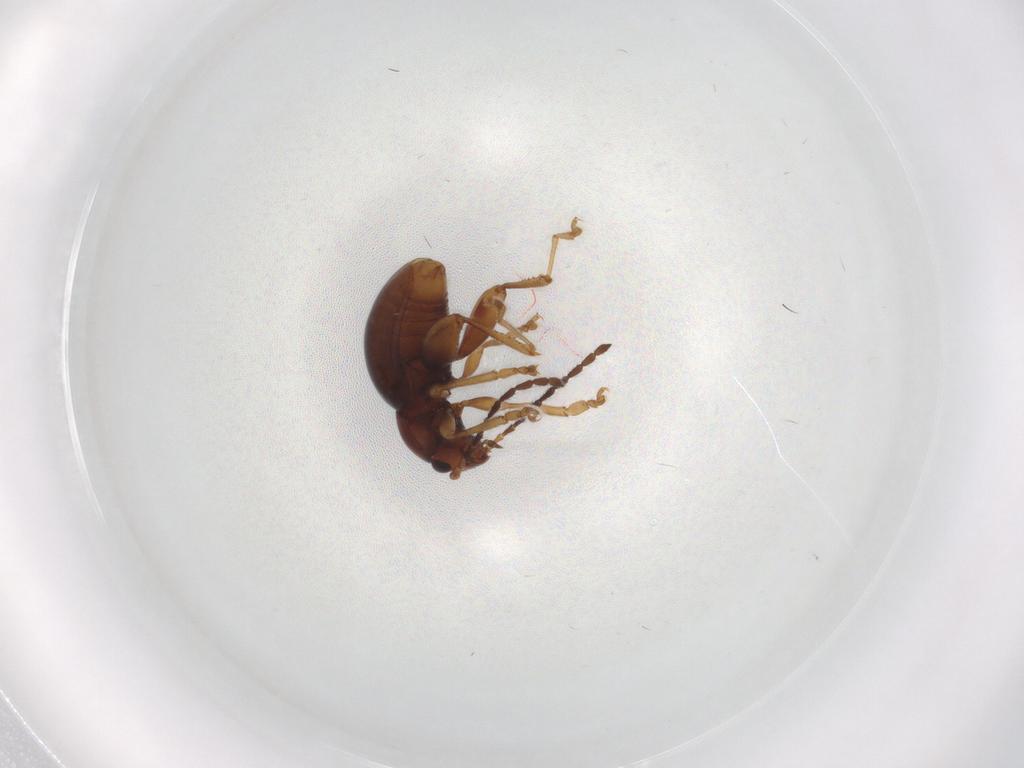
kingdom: Animalia
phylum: Arthropoda
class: Insecta
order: Coleoptera
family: Chrysomelidae
